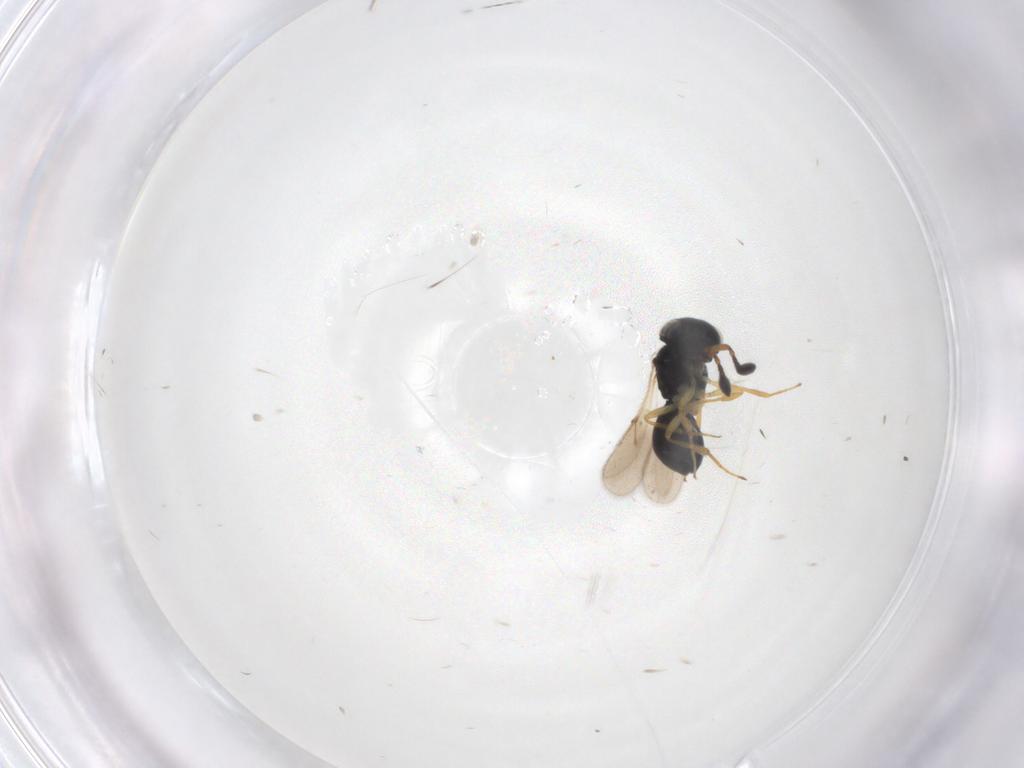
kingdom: Animalia
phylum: Arthropoda
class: Insecta
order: Hymenoptera
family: Scelionidae
